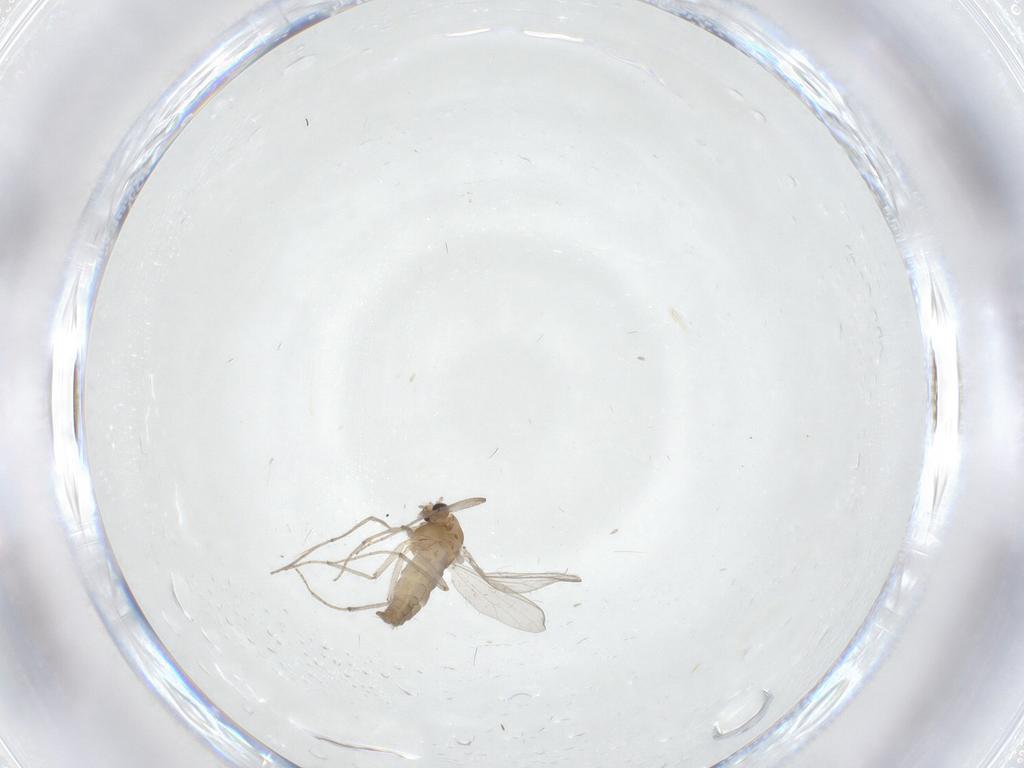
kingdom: Animalia
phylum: Arthropoda
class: Insecta
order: Diptera
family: Chironomidae
